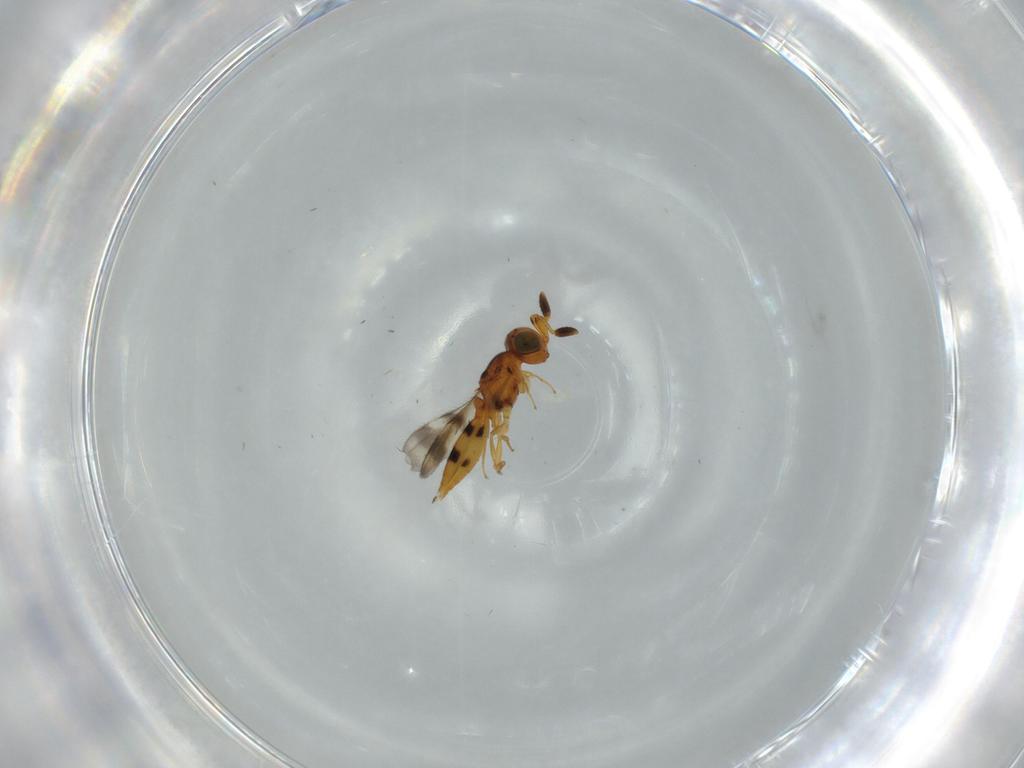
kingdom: Animalia
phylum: Arthropoda
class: Insecta
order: Hymenoptera
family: Scelionidae
